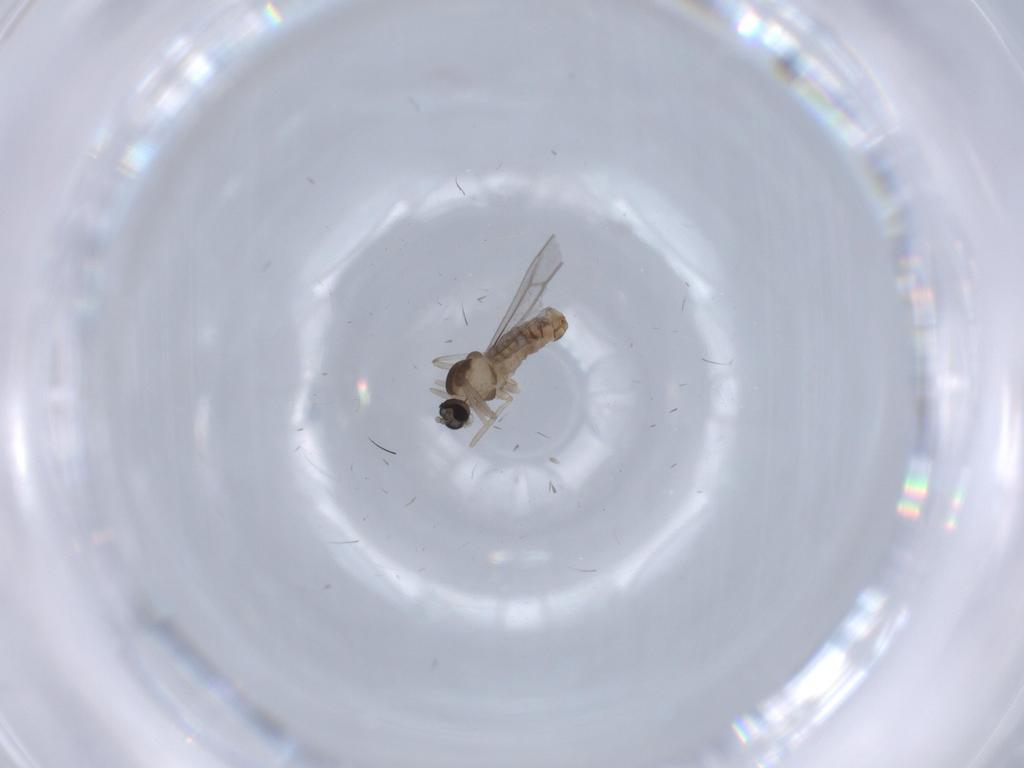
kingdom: Animalia
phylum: Arthropoda
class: Insecta
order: Diptera
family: Cecidomyiidae
